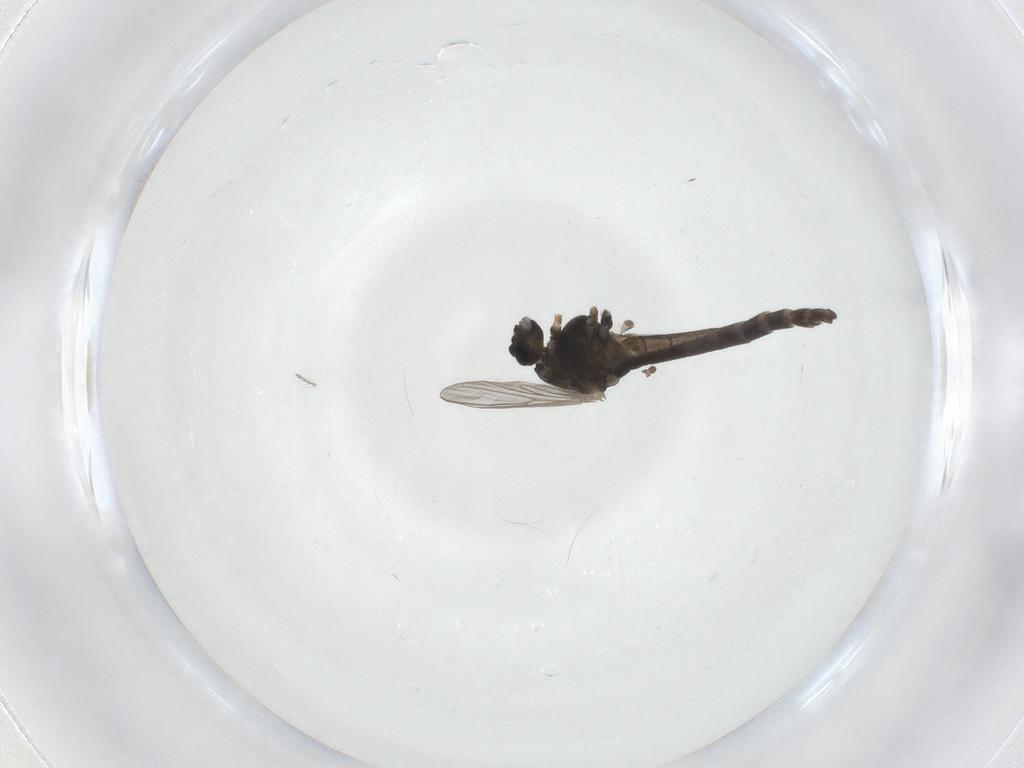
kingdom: Animalia
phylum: Arthropoda
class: Insecta
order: Diptera
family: Chironomidae
